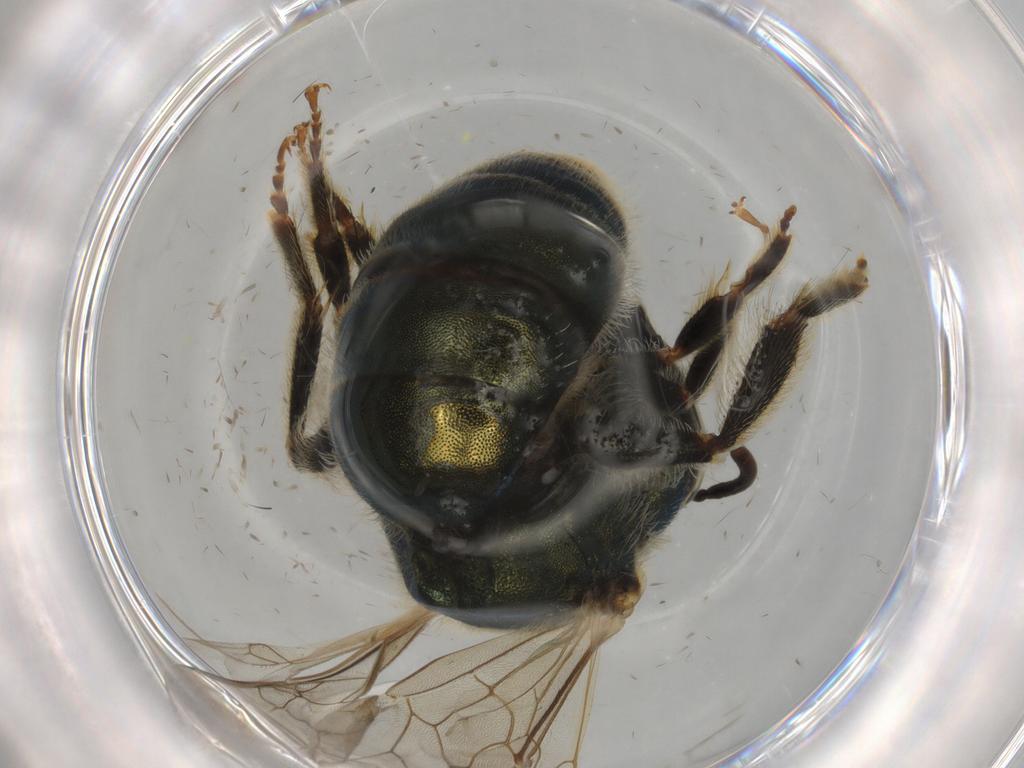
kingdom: Animalia
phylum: Arthropoda
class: Insecta
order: Hymenoptera
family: Halictidae
